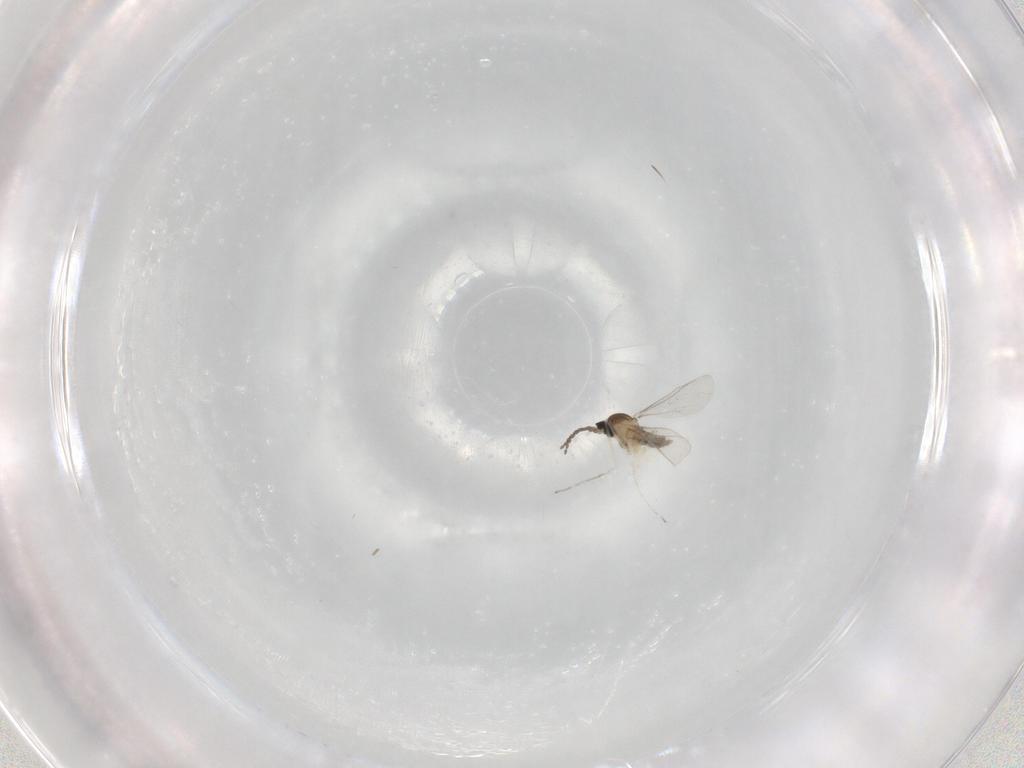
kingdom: Animalia
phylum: Arthropoda
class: Insecta
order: Diptera
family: Cecidomyiidae
